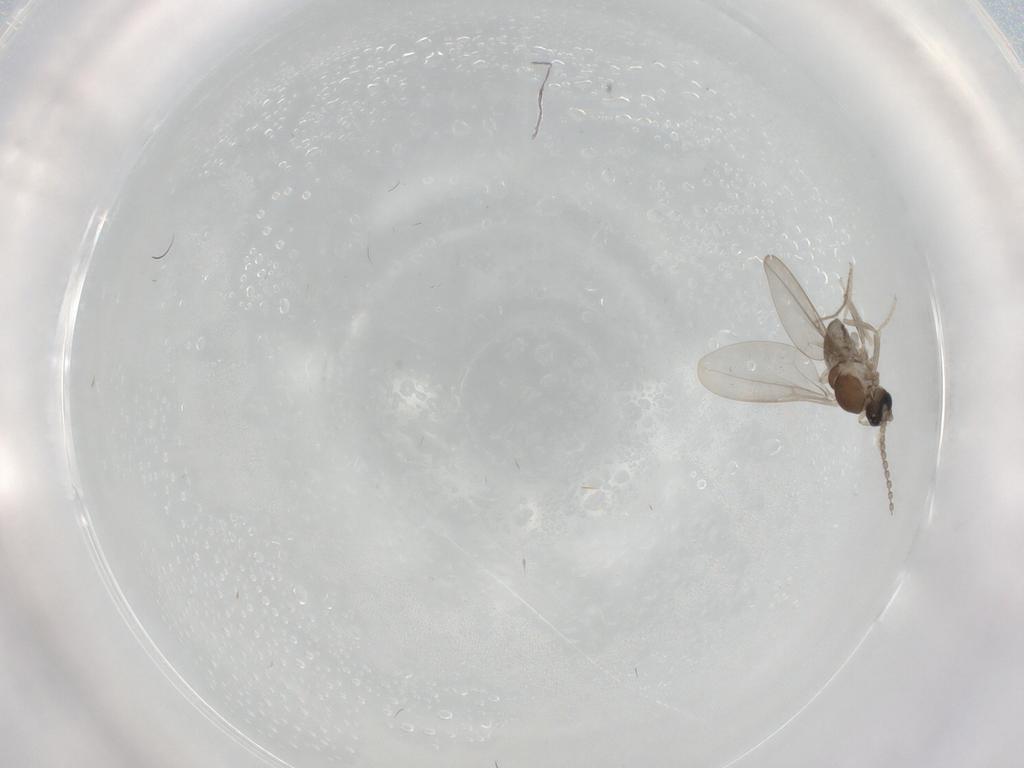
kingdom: Animalia
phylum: Arthropoda
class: Insecta
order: Diptera
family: Cecidomyiidae
